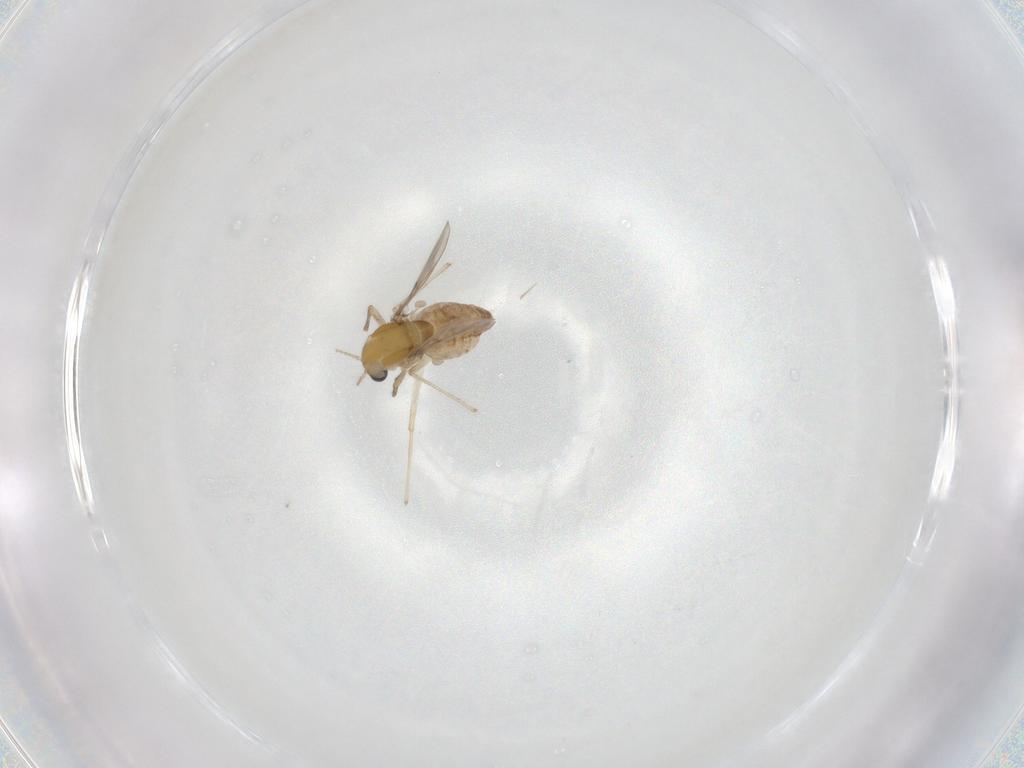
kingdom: Animalia
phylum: Arthropoda
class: Insecta
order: Diptera
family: Chironomidae
